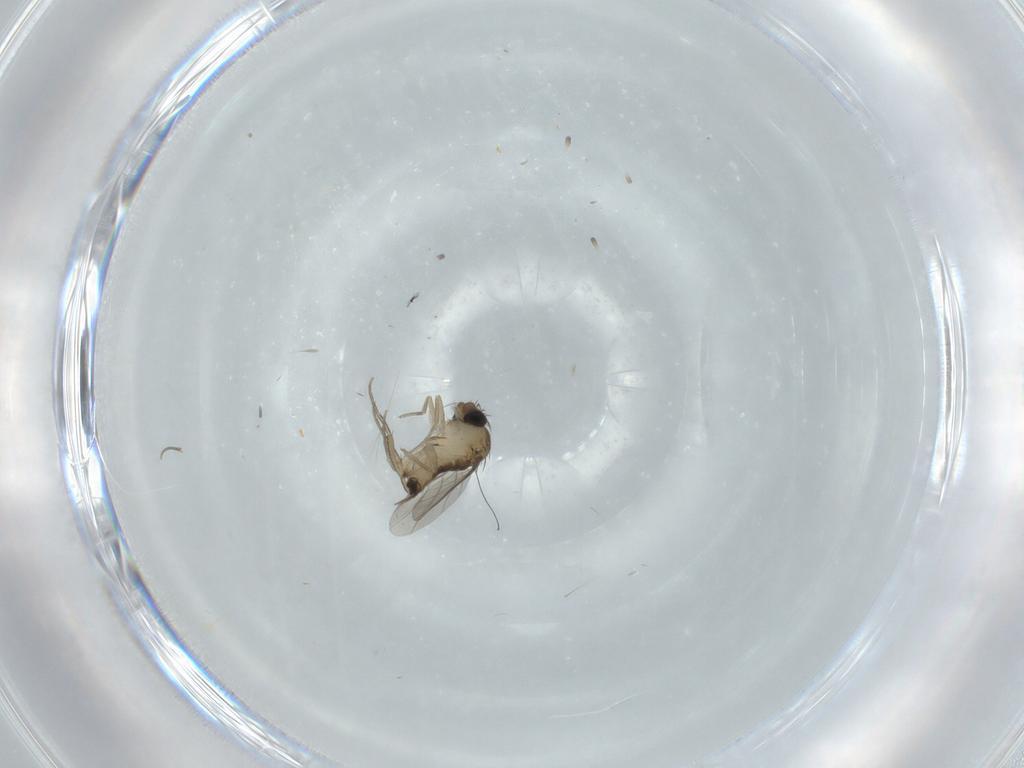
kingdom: Animalia
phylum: Arthropoda
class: Insecta
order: Diptera
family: Phoridae
